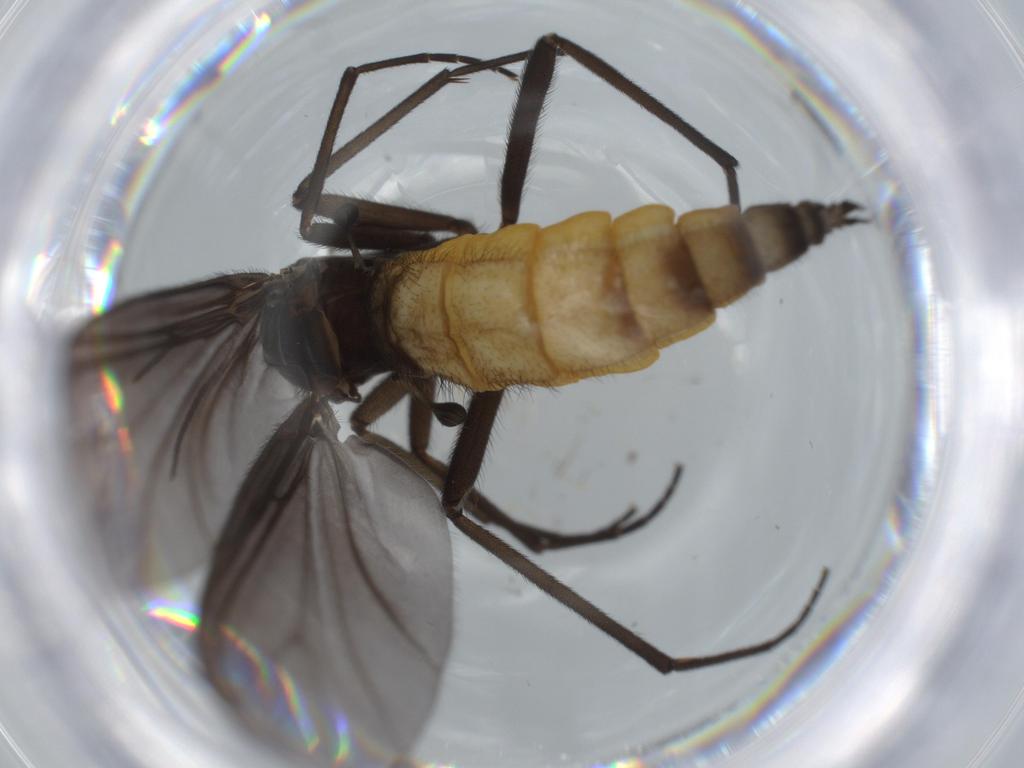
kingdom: Animalia
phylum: Arthropoda
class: Insecta
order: Diptera
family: Chironomidae
